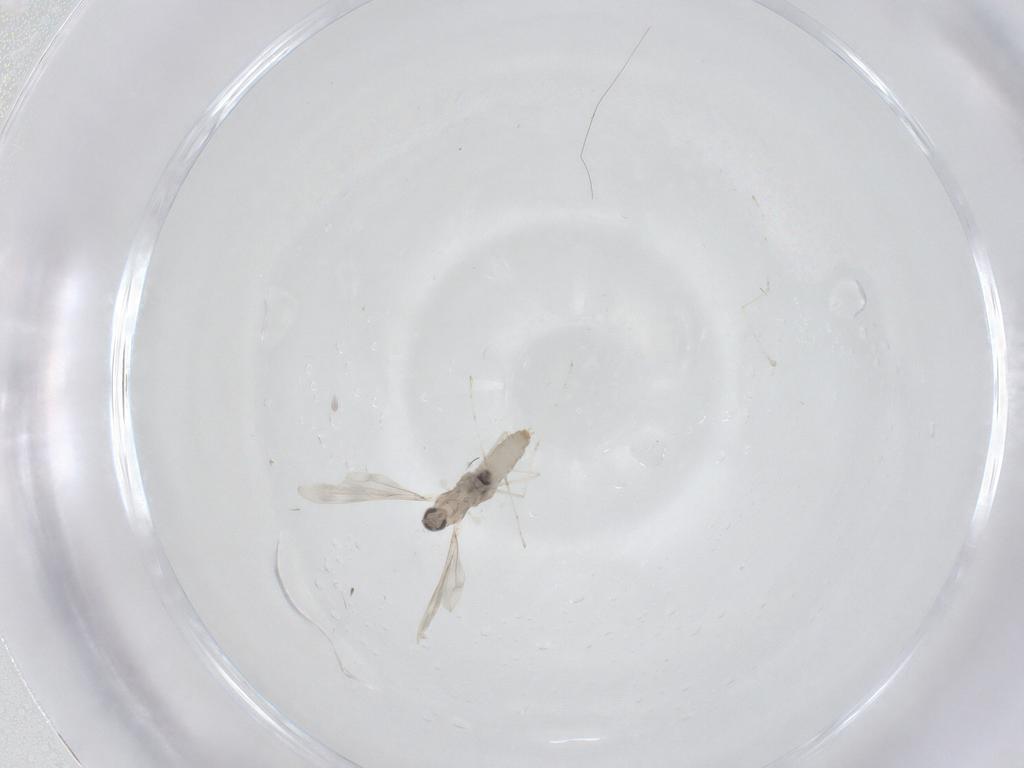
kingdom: Animalia
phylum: Arthropoda
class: Insecta
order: Diptera
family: Cecidomyiidae
